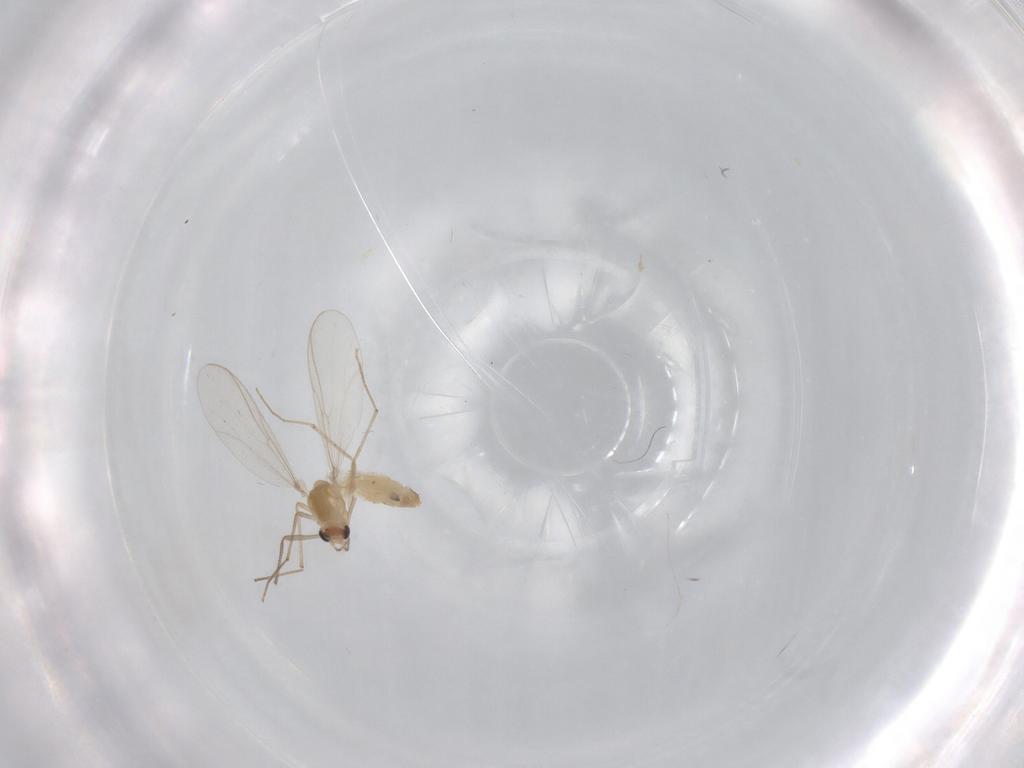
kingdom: Animalia
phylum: Arthropoda
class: Insecta
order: Diptera
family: Chironomidae
